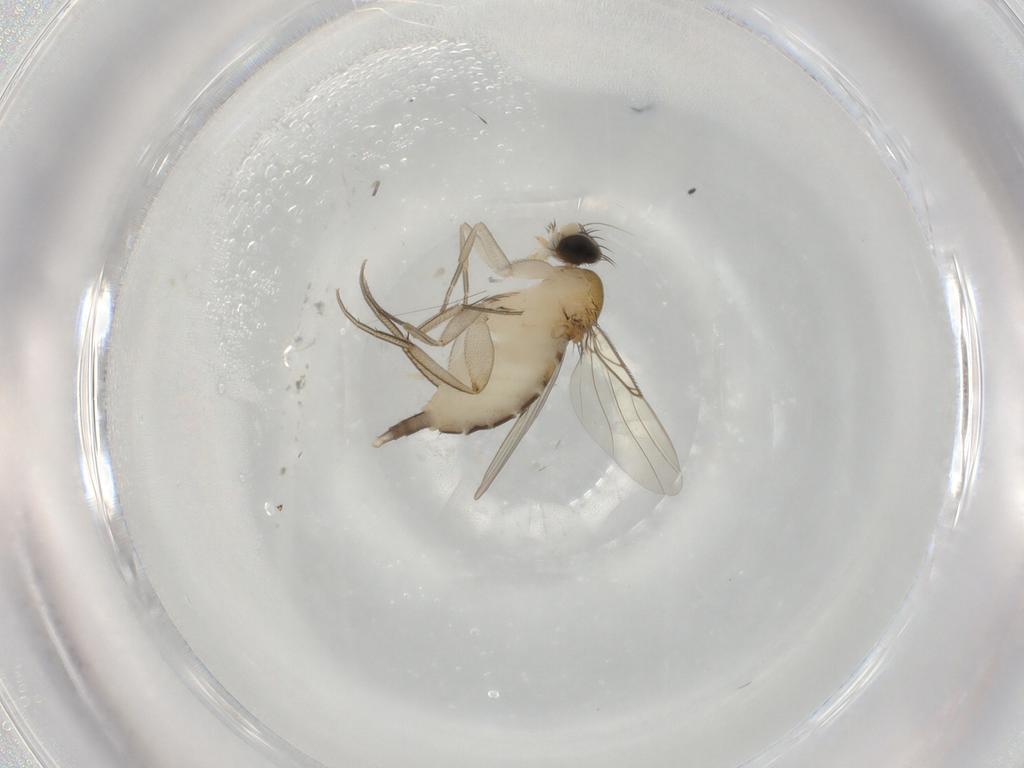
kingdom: Animalia
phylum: Arthropoda
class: Insecta
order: Diptera
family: Phoridae
